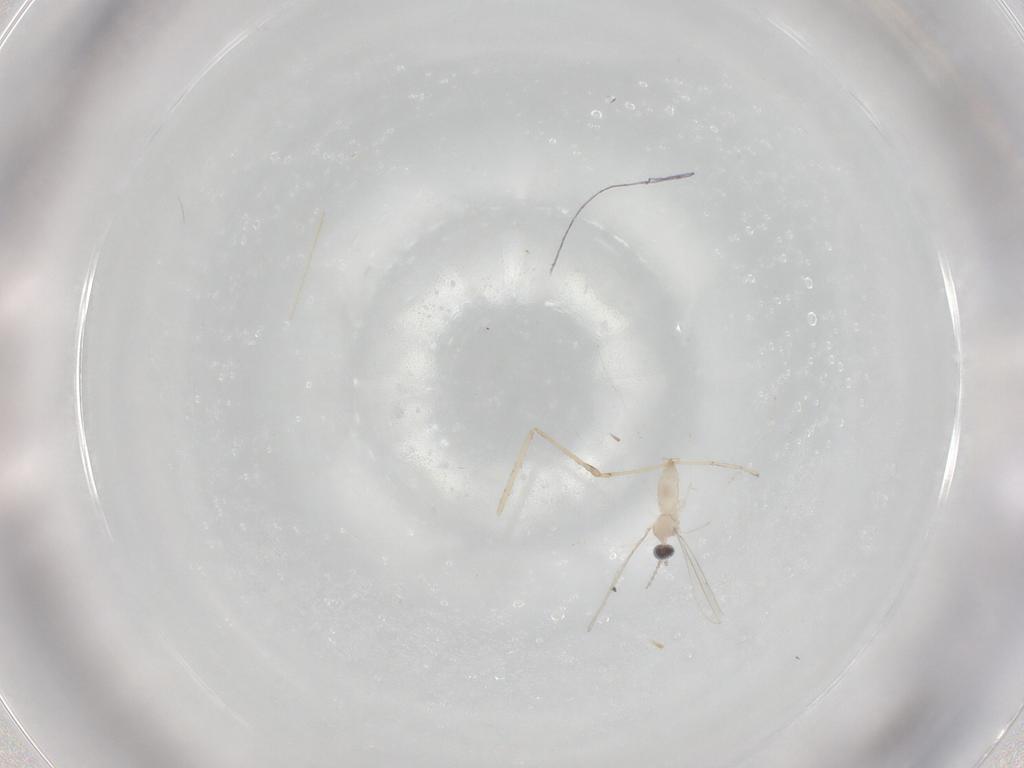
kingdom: Animalia
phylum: Arthropoda
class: Insecta
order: Diptera
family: Cecidomyiidae
